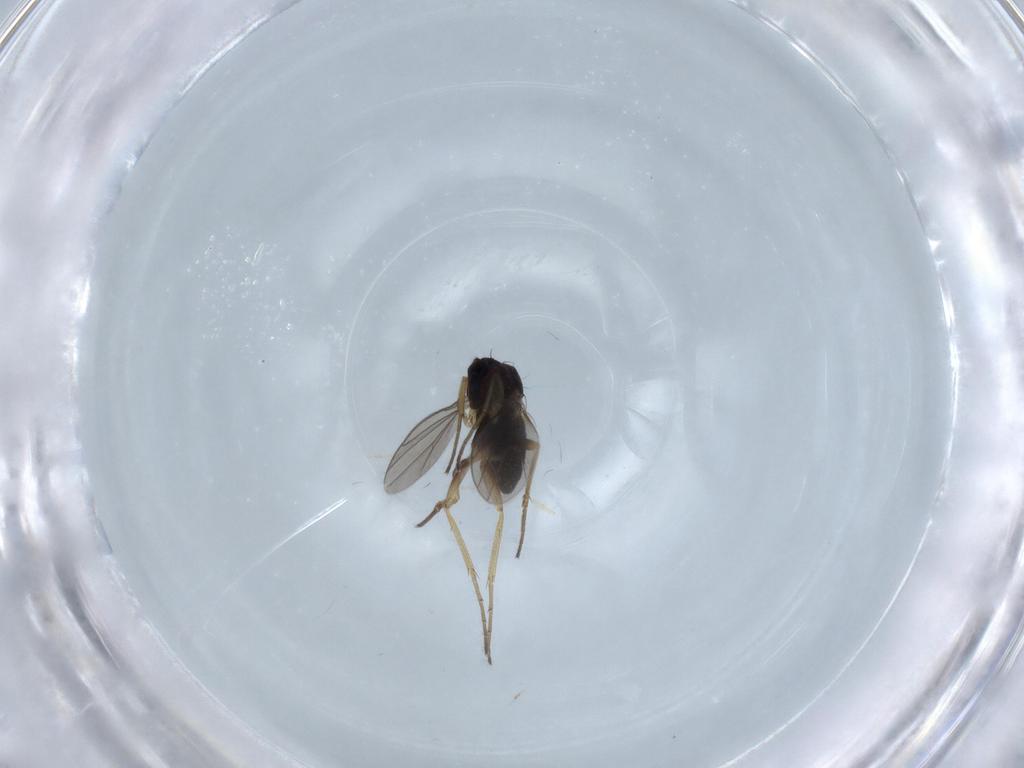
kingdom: Animalia
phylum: Arthropoda
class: Insecta
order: Diptera
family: Dolichopodidae
